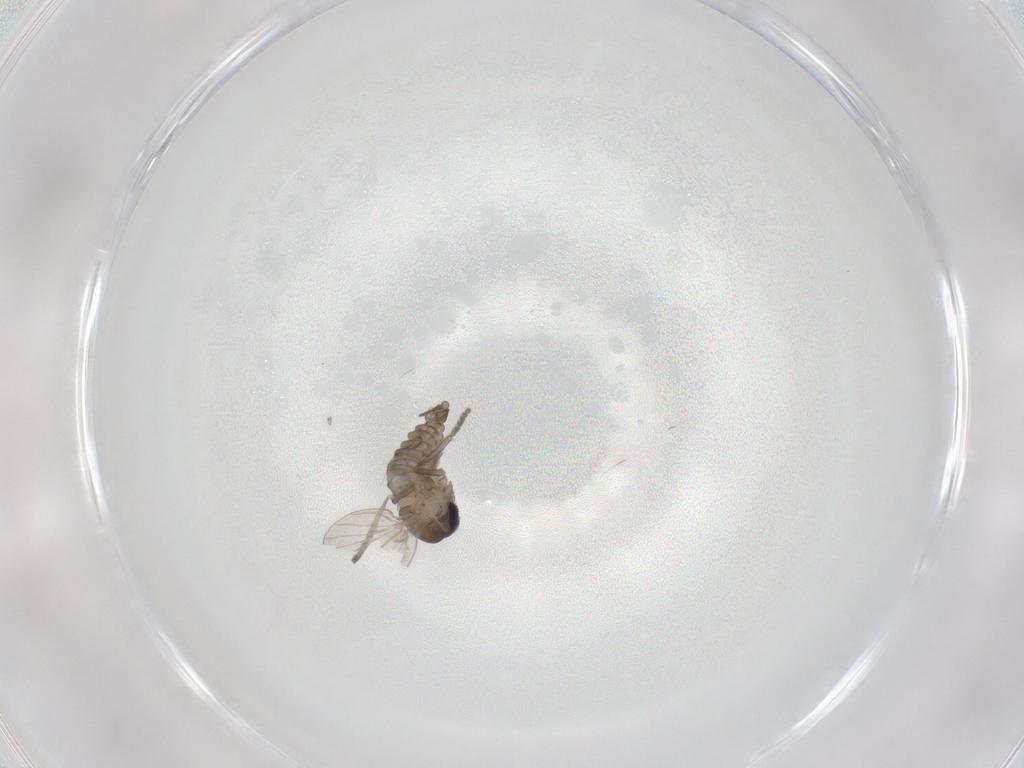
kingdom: Animalia
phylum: Arthropoda
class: Insecta
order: Diptera
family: Psychodidae
